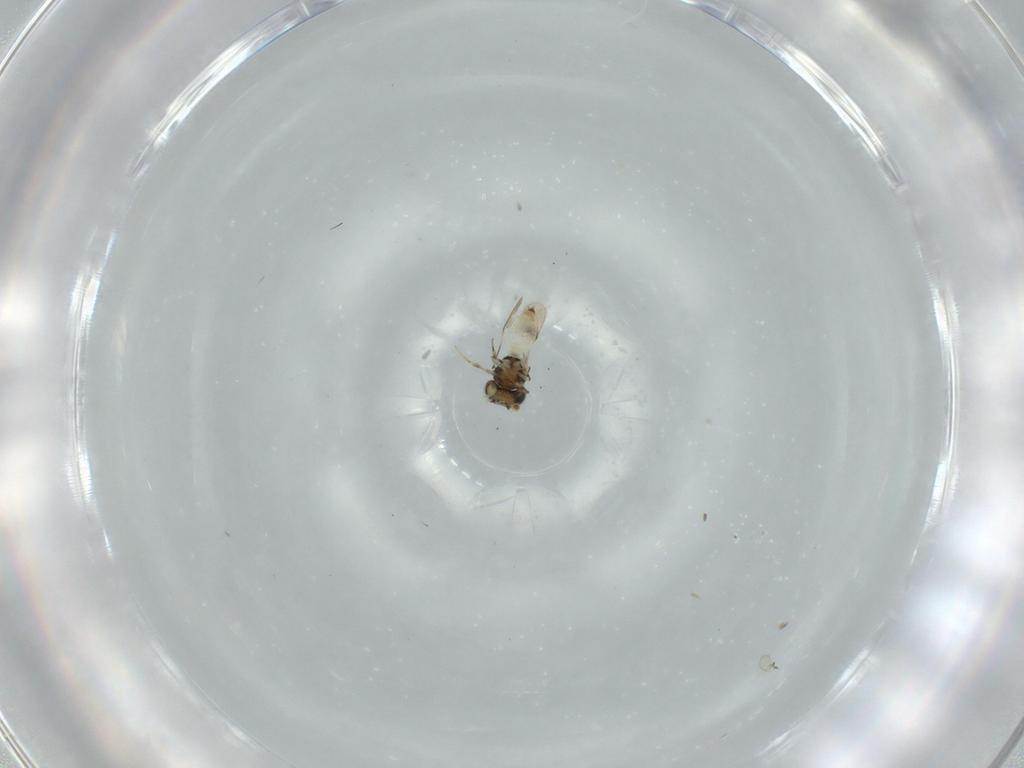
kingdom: Animalia
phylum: Arthropoda
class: Insecta
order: Hymenoptera
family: Scelionidae
